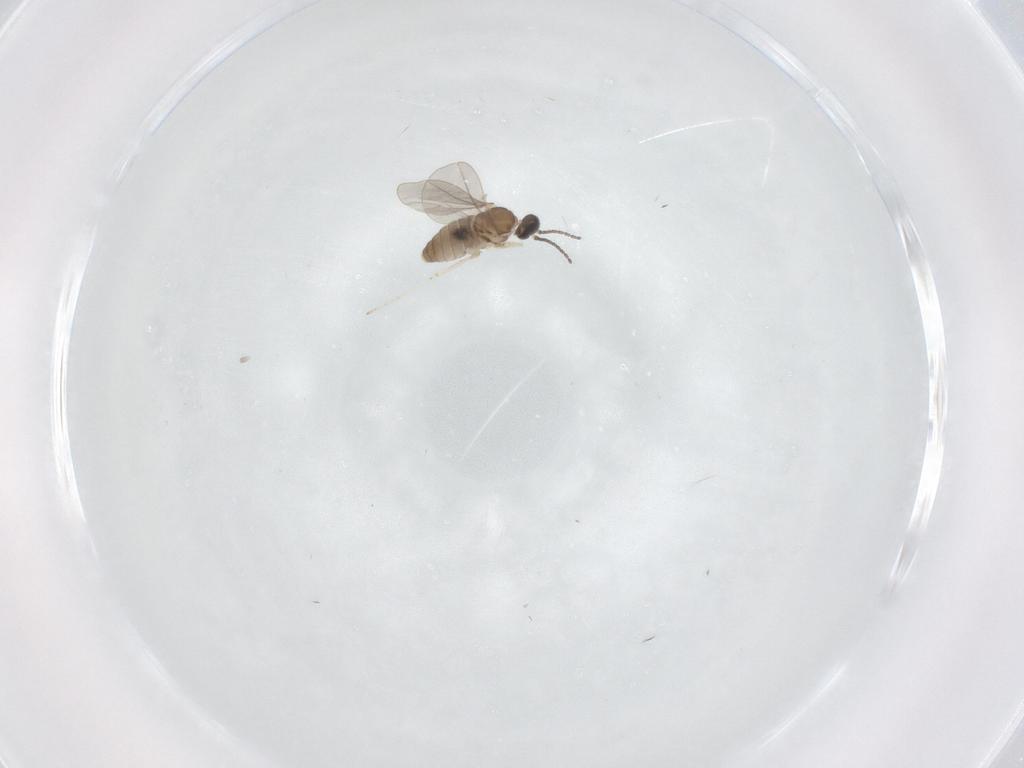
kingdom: Animalia
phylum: Arthropoda
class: Insecta
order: Diptera
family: Cecidomyiidae
